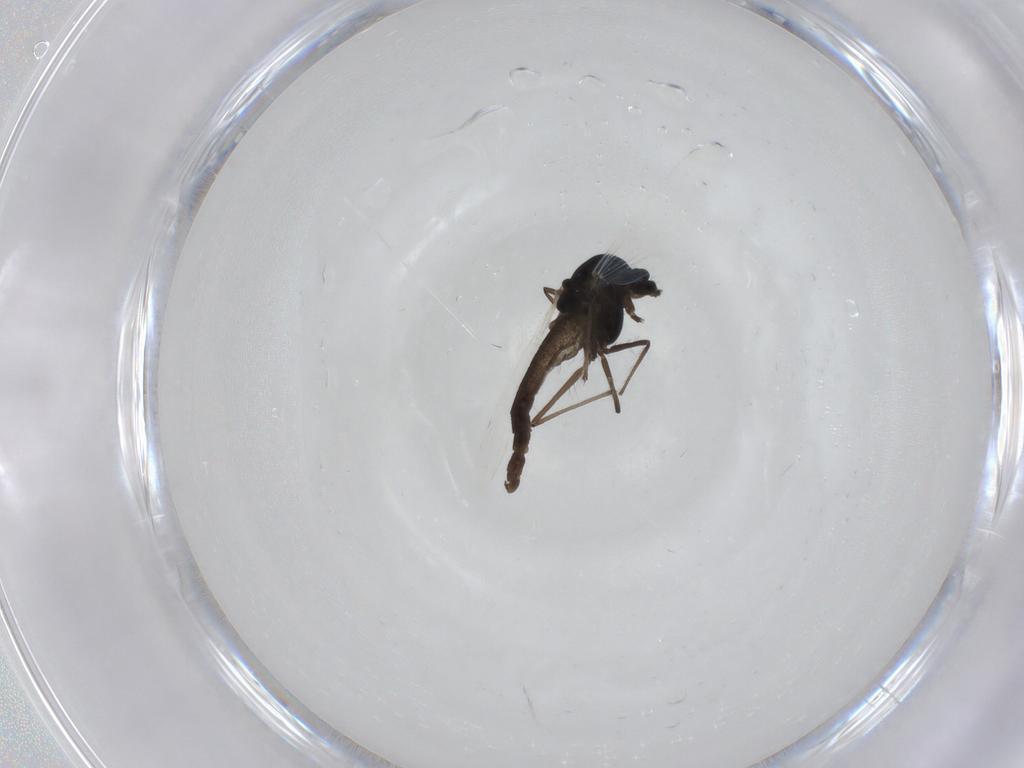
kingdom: Animalia
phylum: Arthropoda
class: Insecta
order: Diptera
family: Chironomidae
